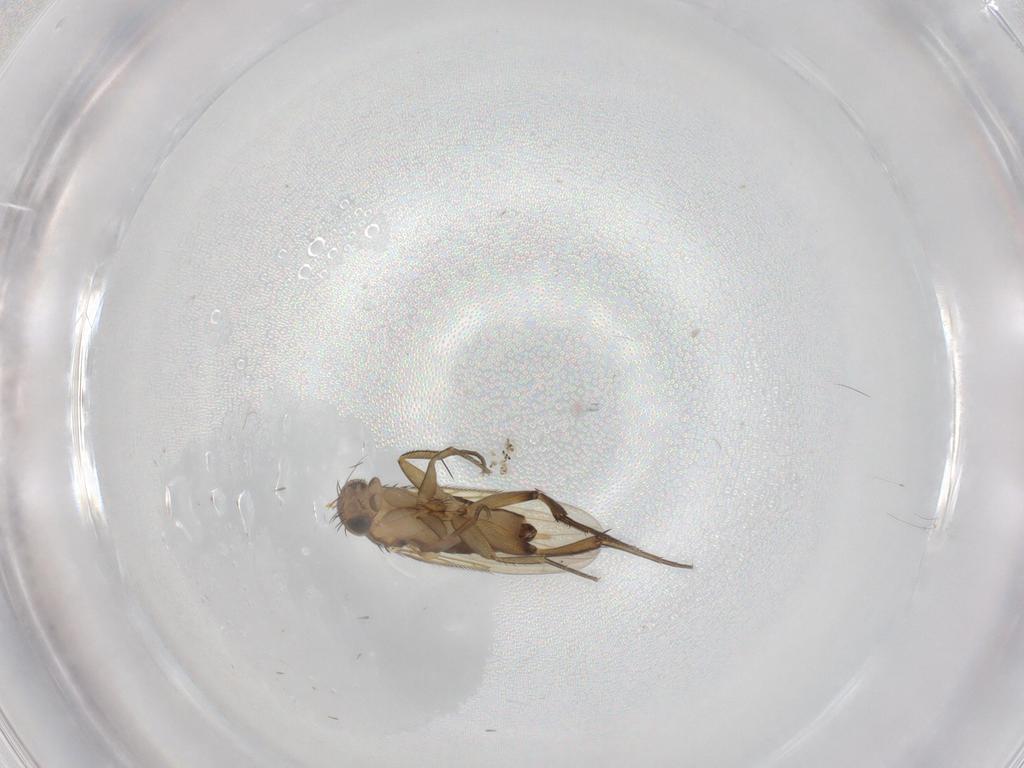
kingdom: Animalia
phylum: Arthropoda
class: Insecta
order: Diptera
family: Phoridae
